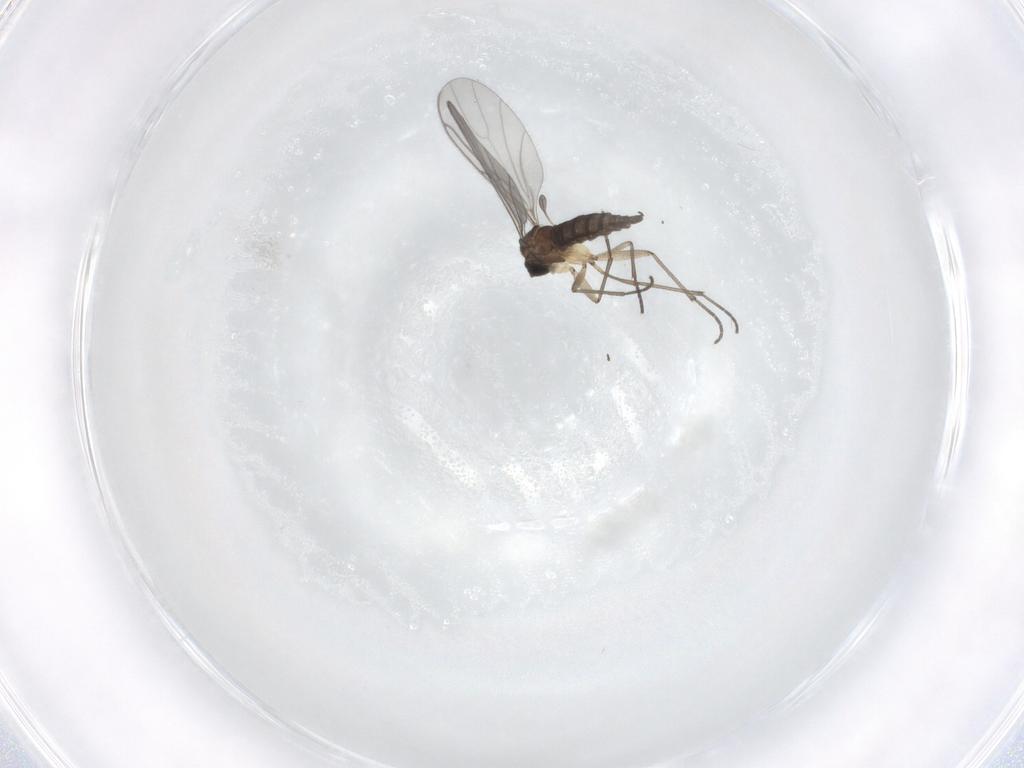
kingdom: Animalia
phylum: Arthropoda
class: Insecta
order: Diptera
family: Sciaridae
